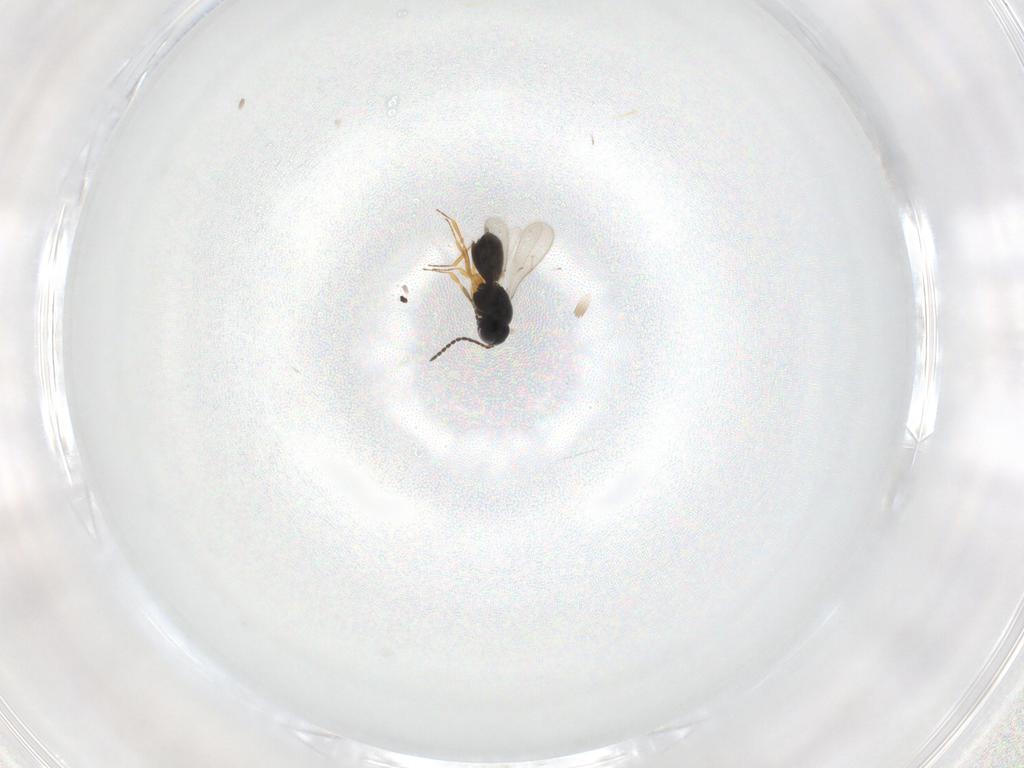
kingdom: Animalia
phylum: Arthropoda
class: Insecta
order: Hymenoptera
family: Scelionidae
